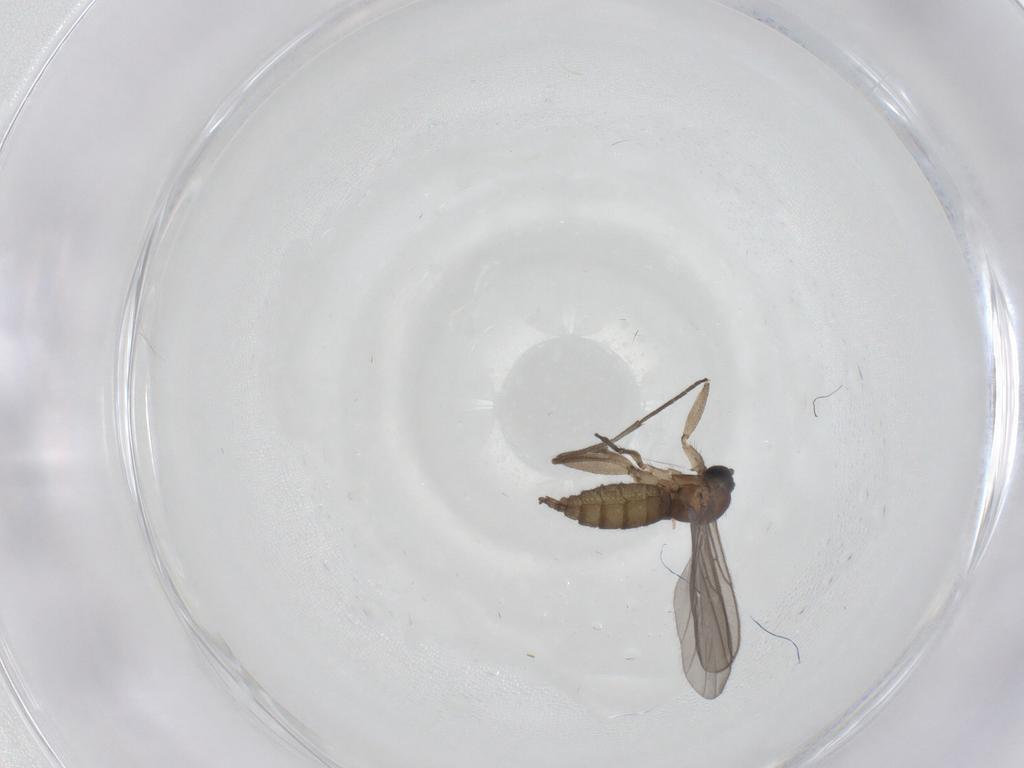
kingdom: Animalia
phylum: Arthropoda
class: Insecta
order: Diptera
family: Sciaridae
